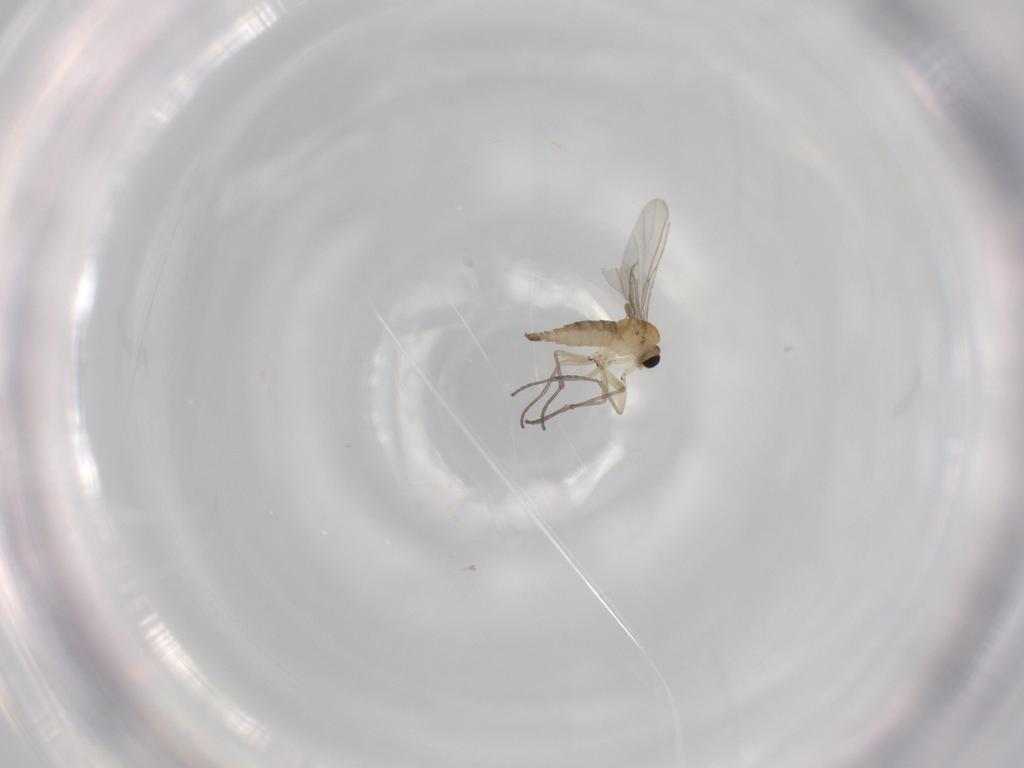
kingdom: Animalia
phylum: Arthropoda
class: Insecta
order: Diptera
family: Sciaridae
